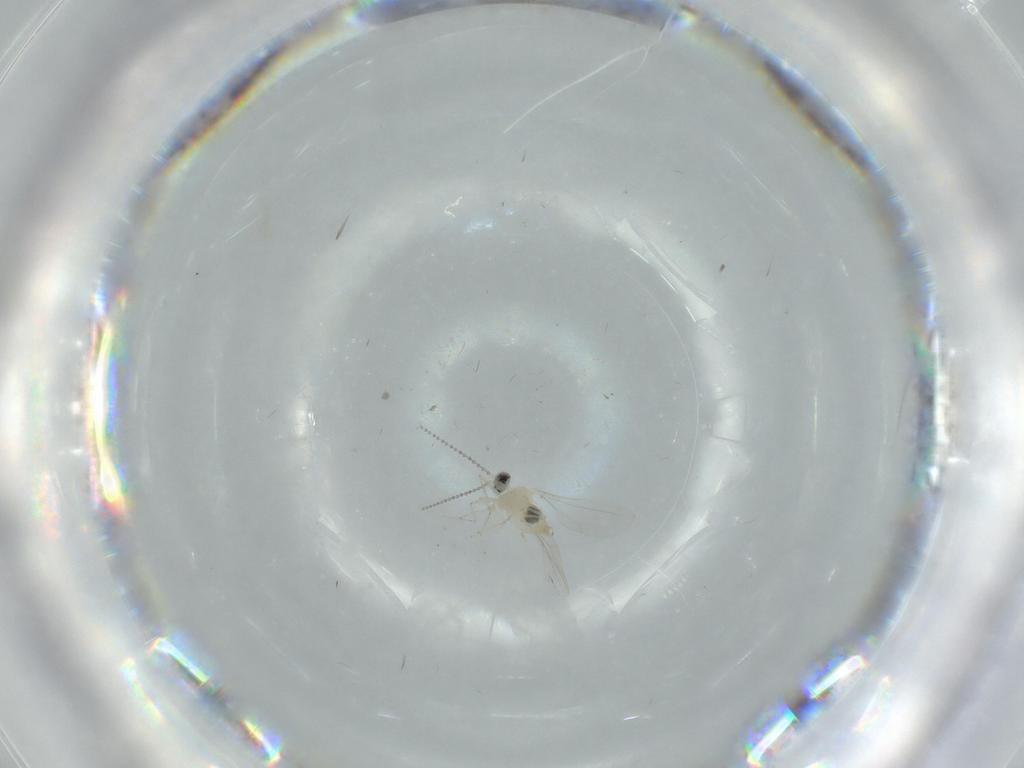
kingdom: Animalia
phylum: Arthropoda
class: Insecta
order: Diptera
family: Cecidomyiidae
